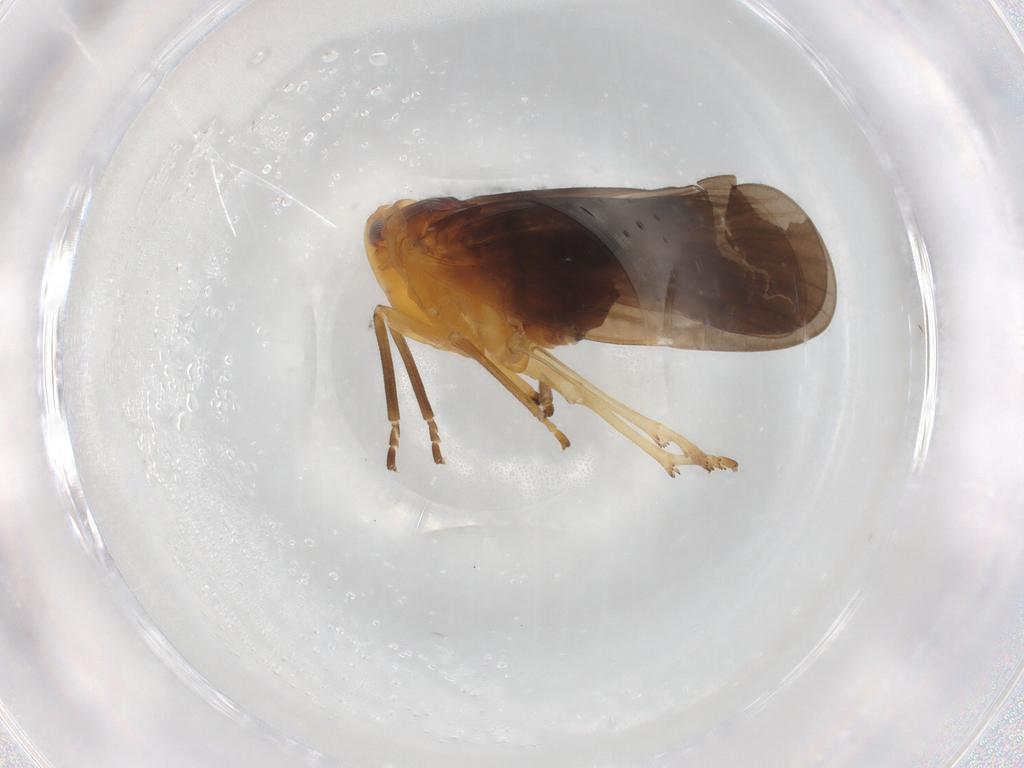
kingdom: Animalia
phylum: Arthropoda
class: Insecta
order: Hemiptera
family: Derbidae
